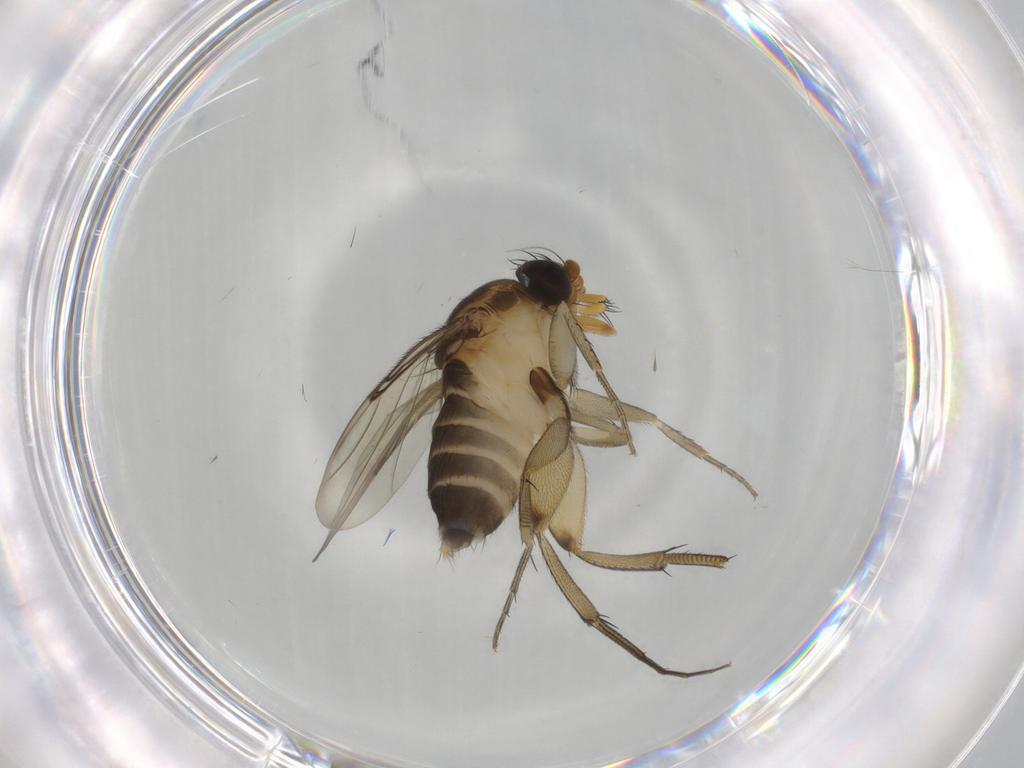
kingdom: Animalia
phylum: Arthropoda
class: Insecta
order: Diptera
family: Phoridae
